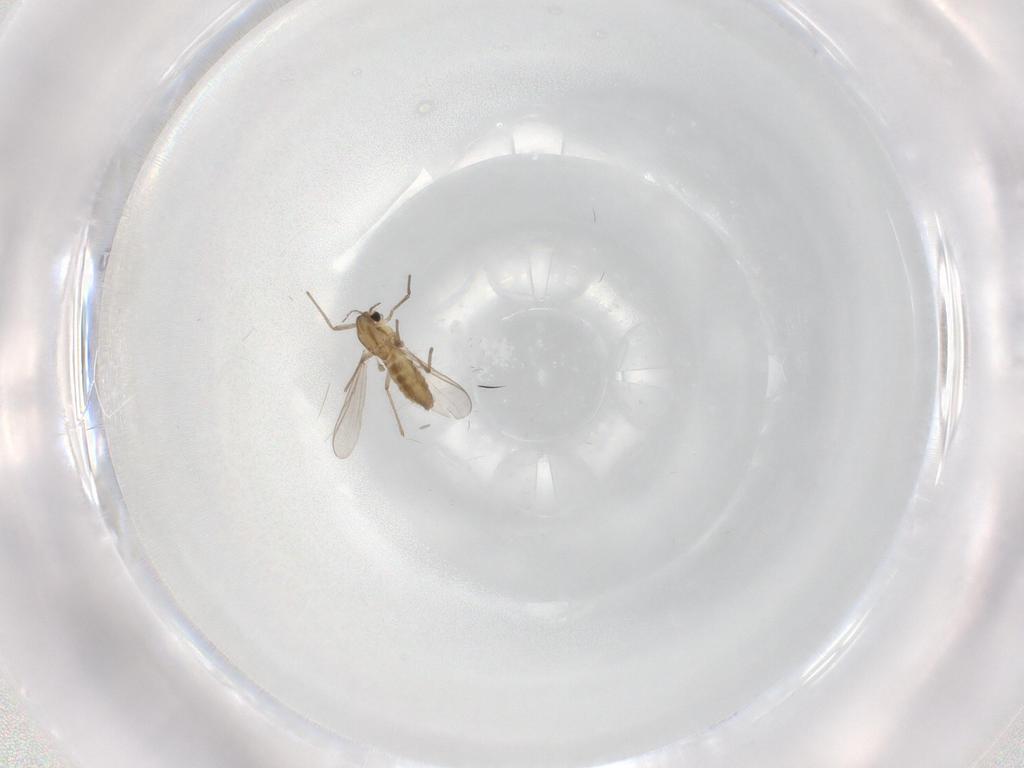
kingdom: Animalia
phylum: Arthropoda
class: Insecta
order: Diptera
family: Chironomidae
